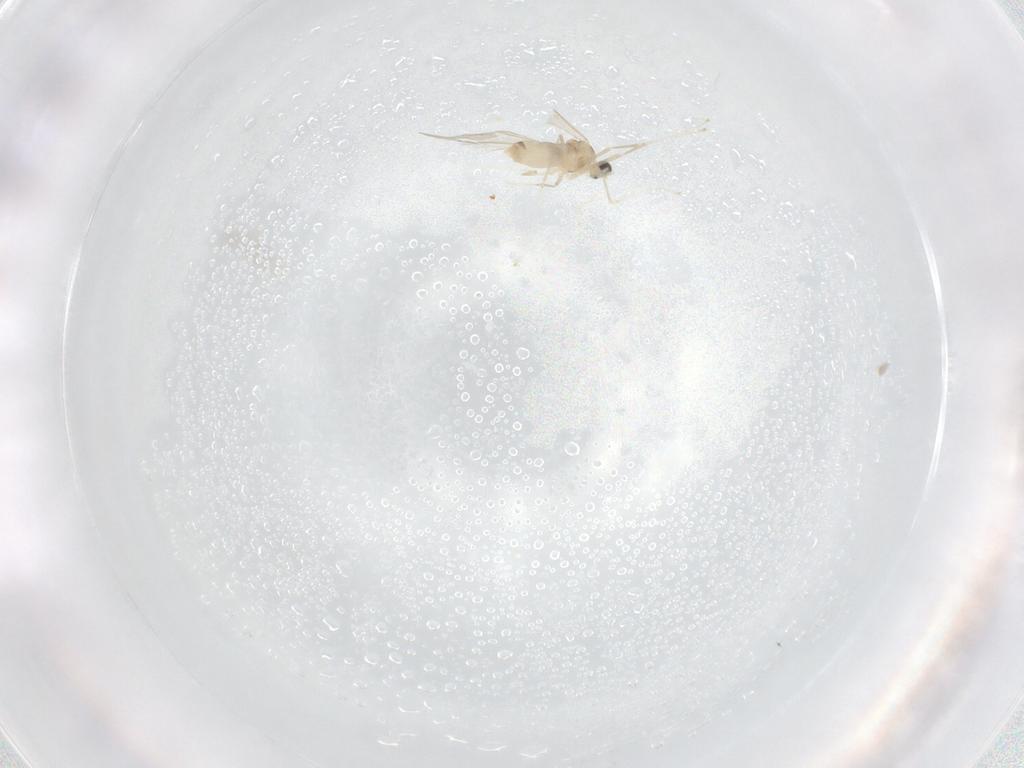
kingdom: Animalia
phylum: Arthropoda
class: Insecta
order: Diptera
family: Cecidomyiidae
